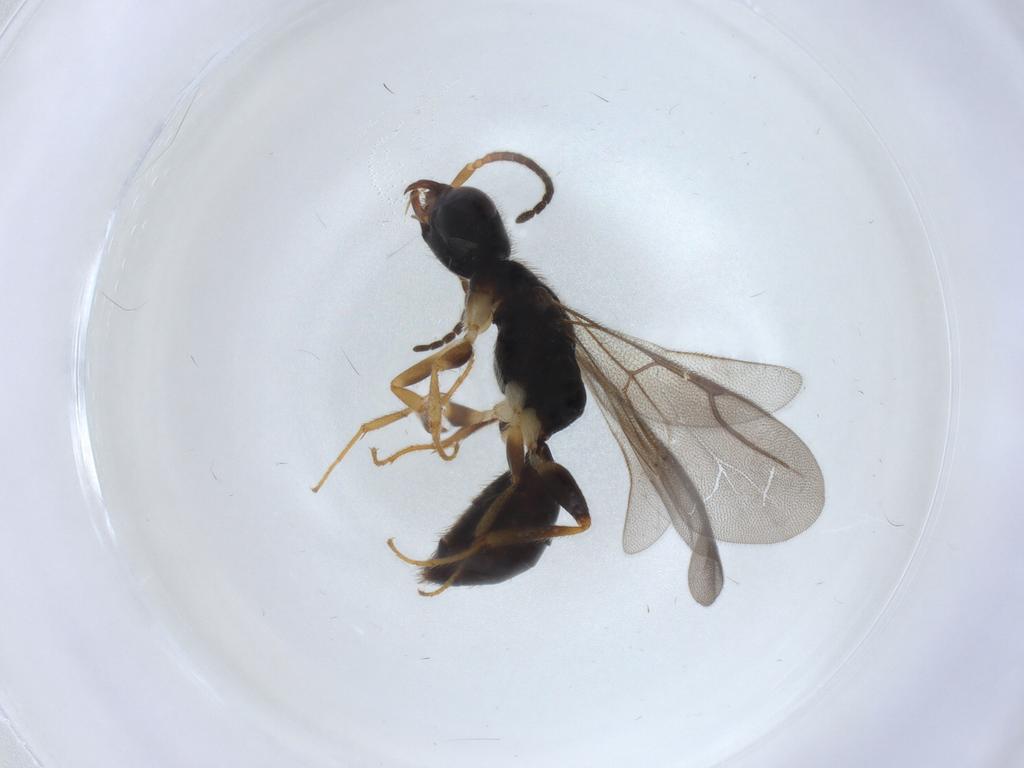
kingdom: Animalia
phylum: Arthropoda
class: Insecta
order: Hymenoptera
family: Bethylidae
